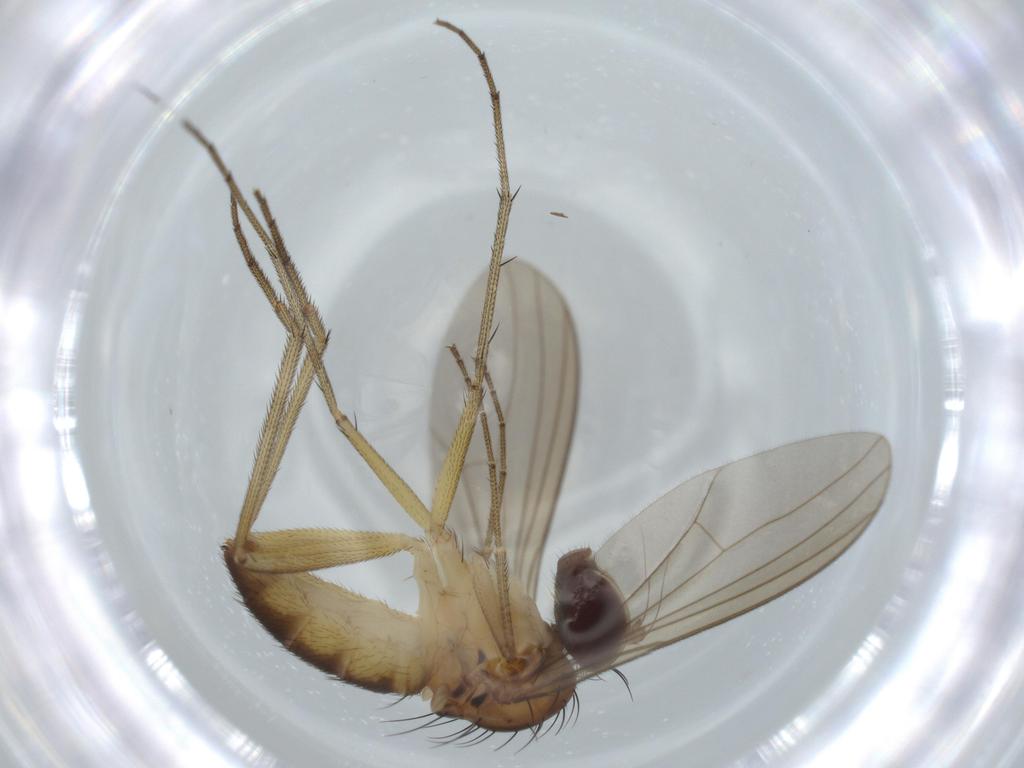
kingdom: Animalia
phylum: Arthropoda
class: Insecta
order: Diptera
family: Dolichopodidae
